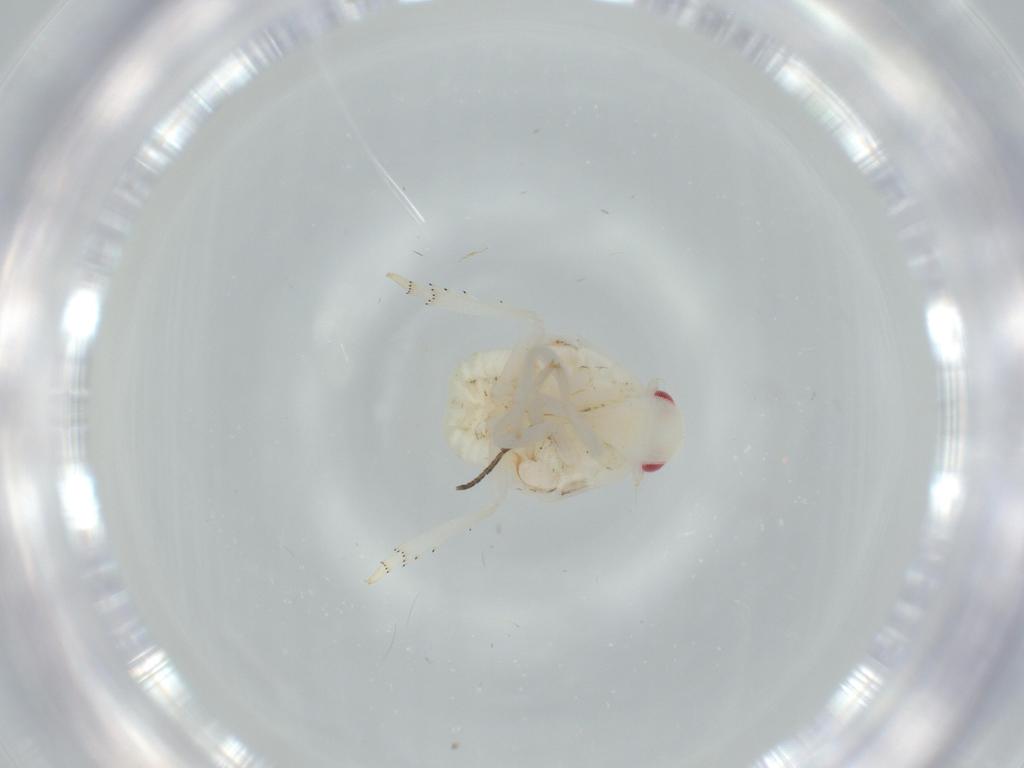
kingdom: Animalia
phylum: Arthropoda
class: Insecta
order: Hemiptera
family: Flatidae
